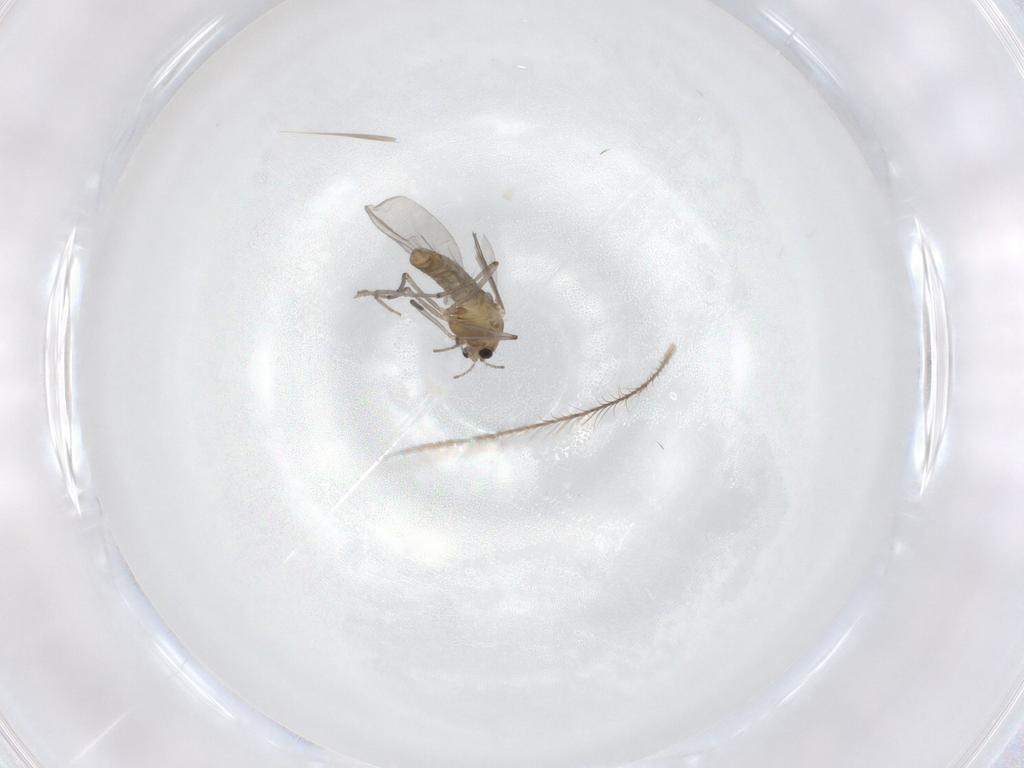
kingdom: Animalia
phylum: Arthropoda
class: Insecta
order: Diptera
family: Chironomidae
